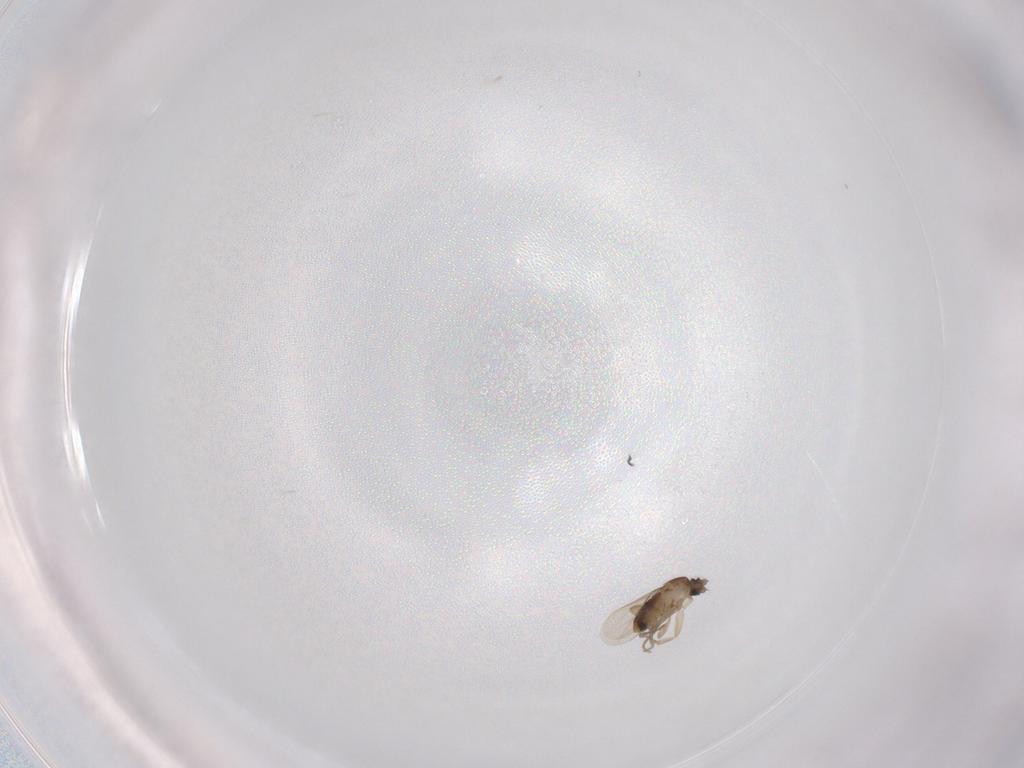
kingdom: Animalia
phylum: Arthropoda
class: Insecta
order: Diptera
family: Phoridae
